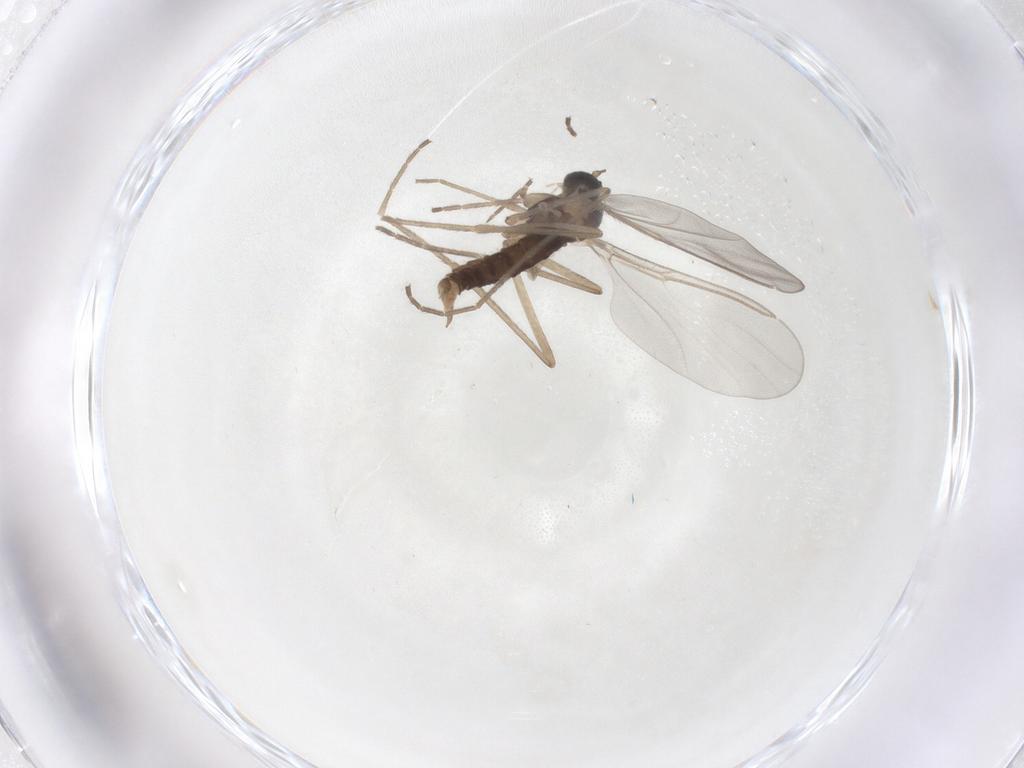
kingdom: Animalia
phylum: Arthropoda
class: Insecta
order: Diptera
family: Cecidomyiidae
